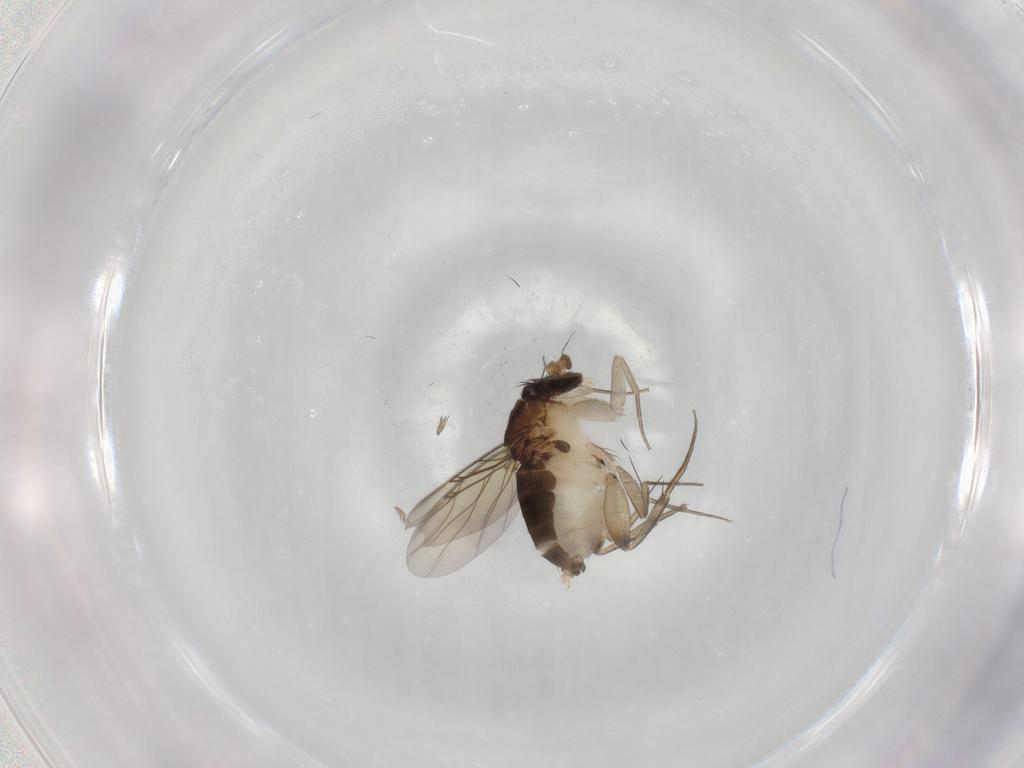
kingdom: Animalia
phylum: Arthropoda
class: Insecta
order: Diptera
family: Phoridae
